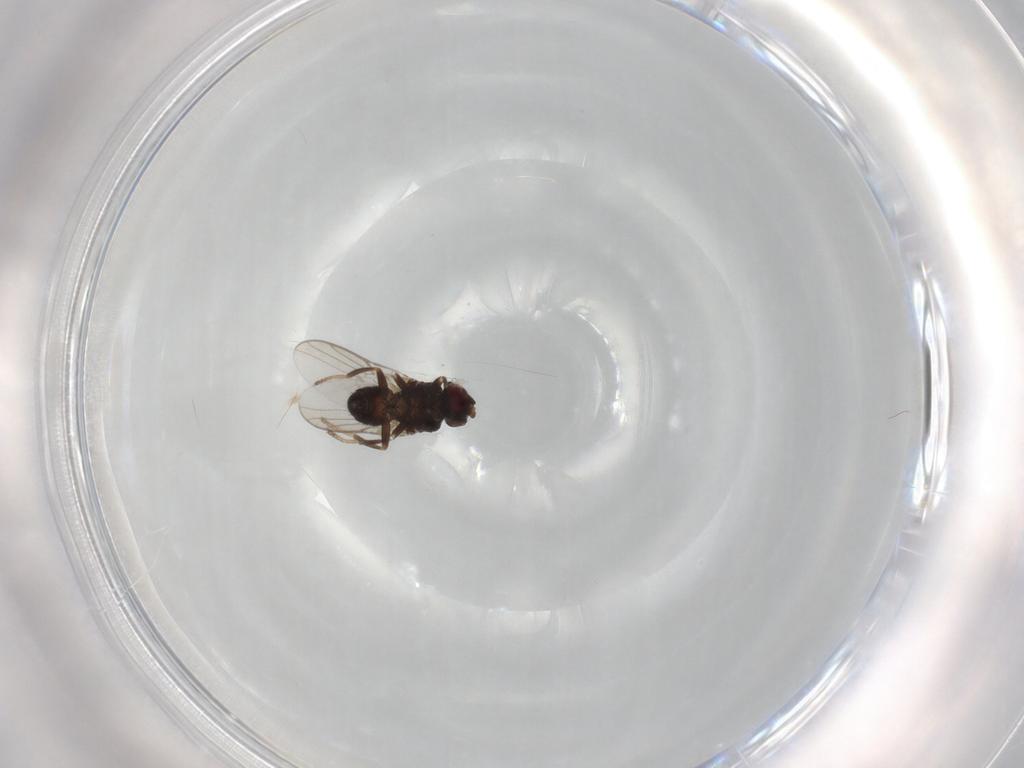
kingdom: Animalia
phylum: Arthropoda
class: Insecta
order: Diptera
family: Chloropidae
